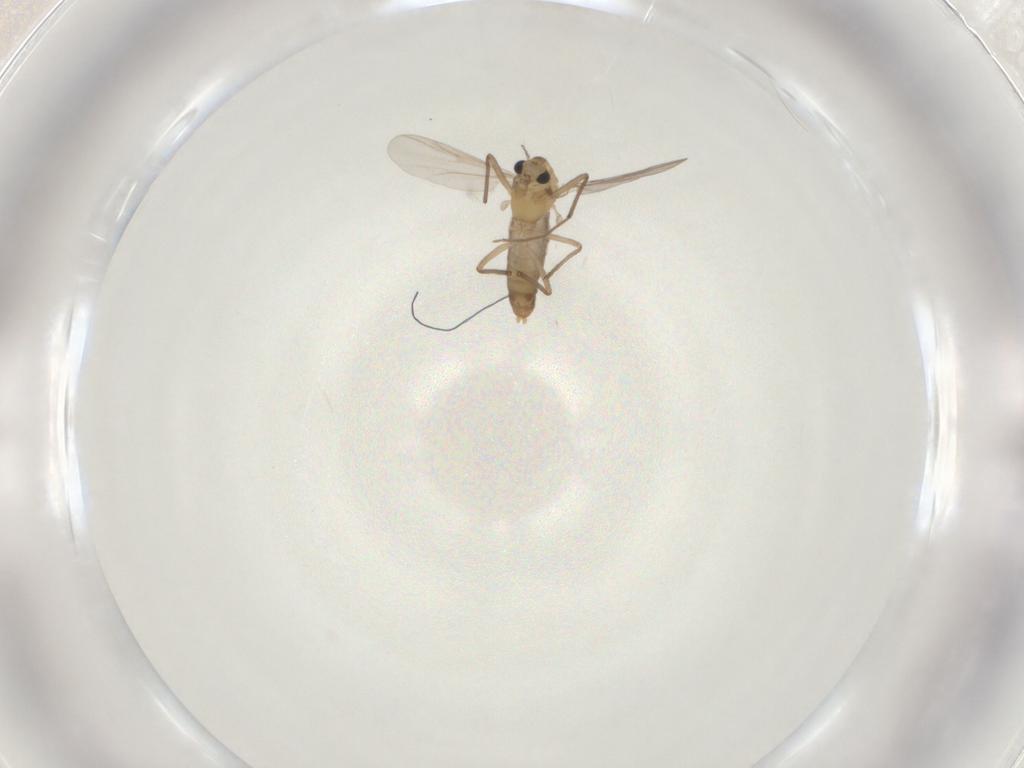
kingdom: Animalia
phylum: Arthropoda
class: Insecta
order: Diptera
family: Chironomidae
